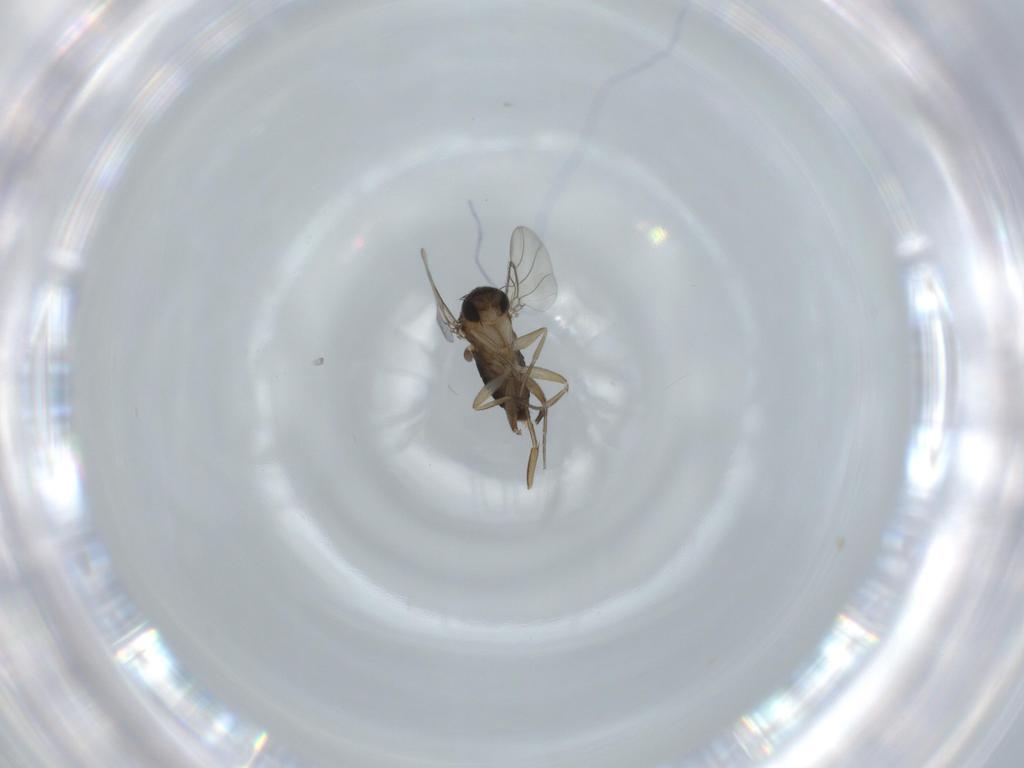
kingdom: Animalia
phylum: Arthropoda
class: Insecta
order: Diptera
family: Phoridae
